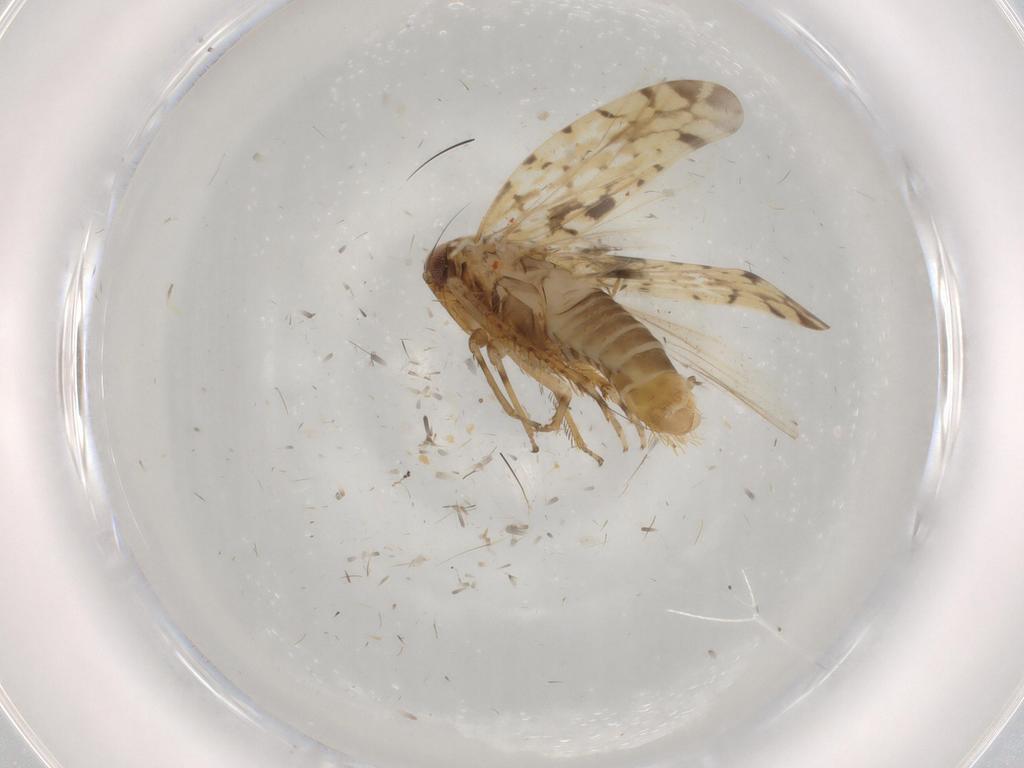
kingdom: Animalia
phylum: Arthropoda
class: Insecta
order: Hemiptera
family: Cicadellidae
